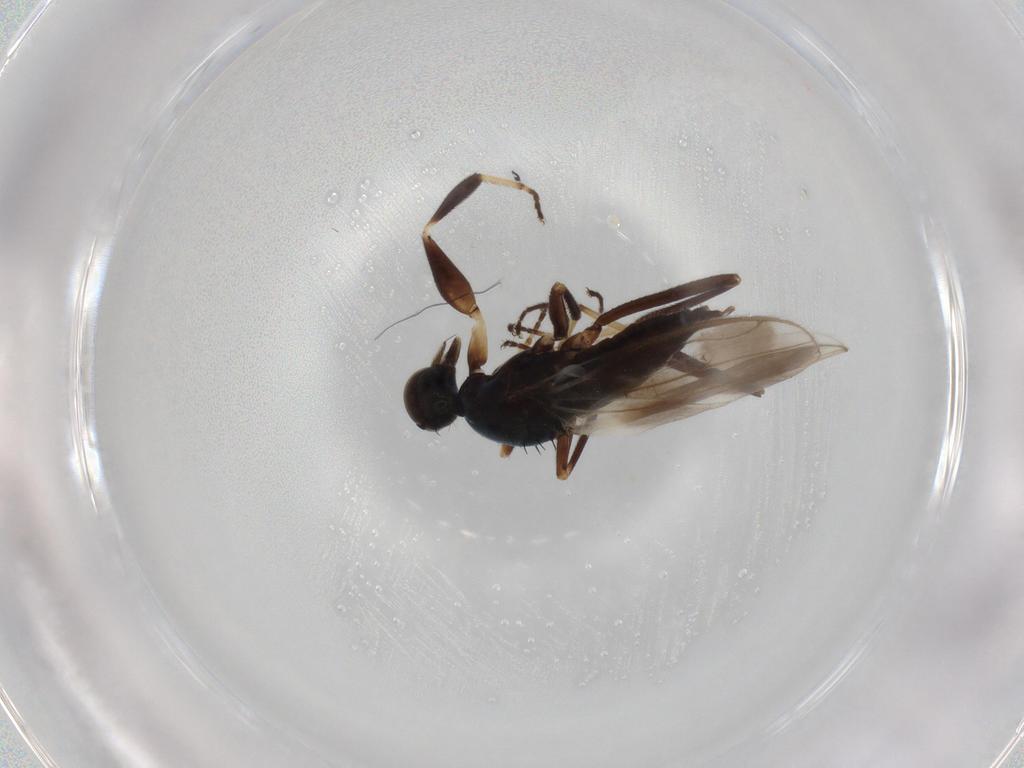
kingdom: Animalia
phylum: Arthropoda
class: Insecta
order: Diptera
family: Hybotidae
